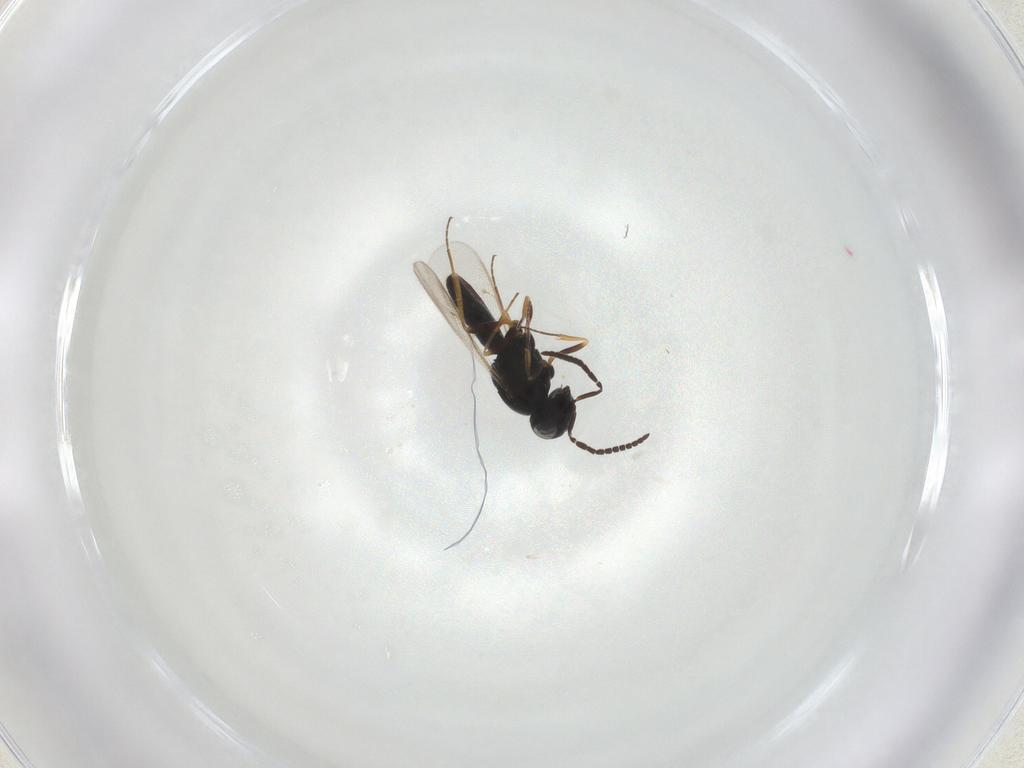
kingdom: Animalia
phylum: Arthropoda
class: Insecta
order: Hymenoptera
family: Scelionidae
